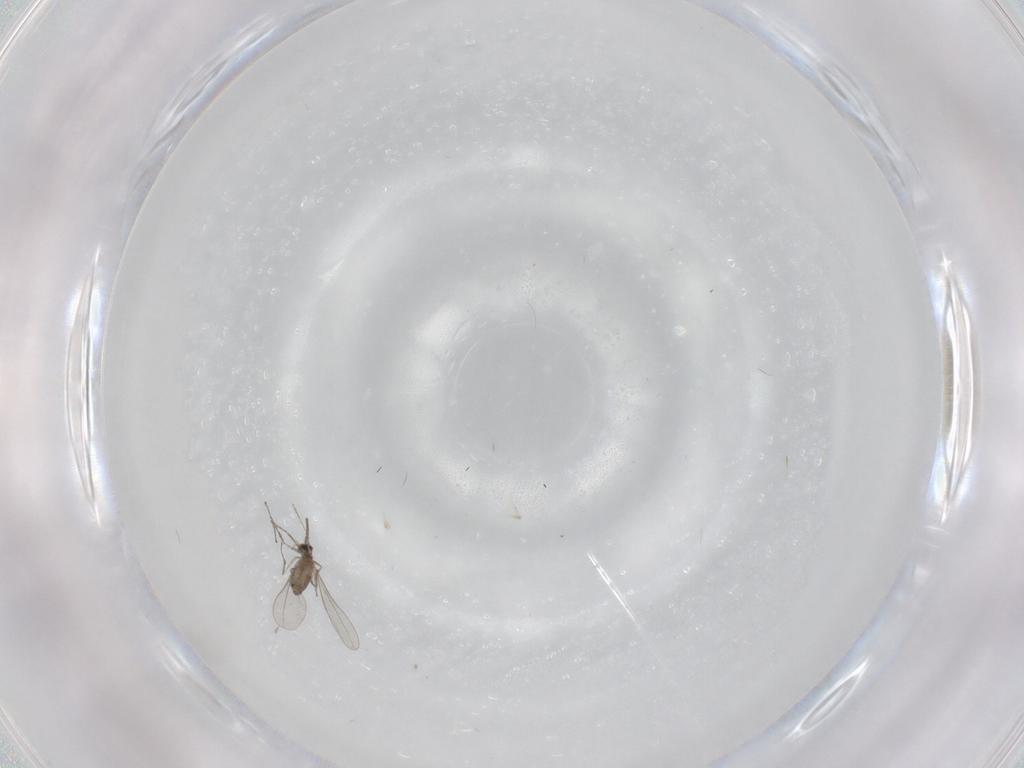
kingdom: Animalia
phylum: Arthropoda
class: Insecta
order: Diptera
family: Cecidomyiidae
